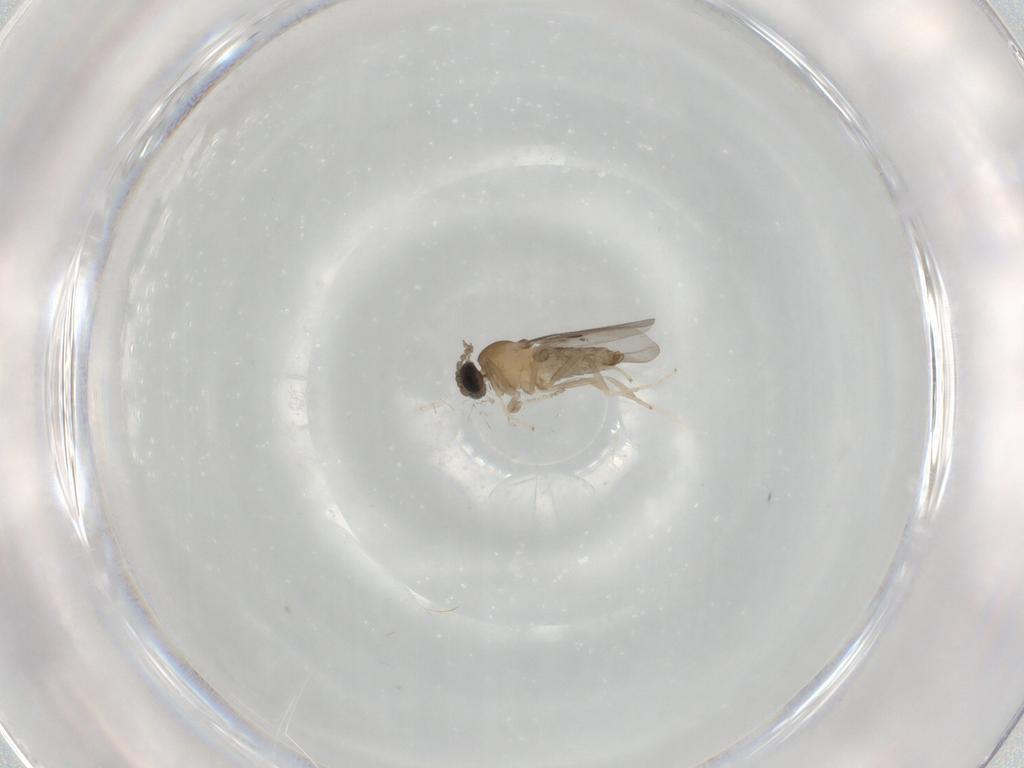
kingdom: Animalia
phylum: Arthropoda
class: Insecta
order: Diptera
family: Cecidomyiidae
